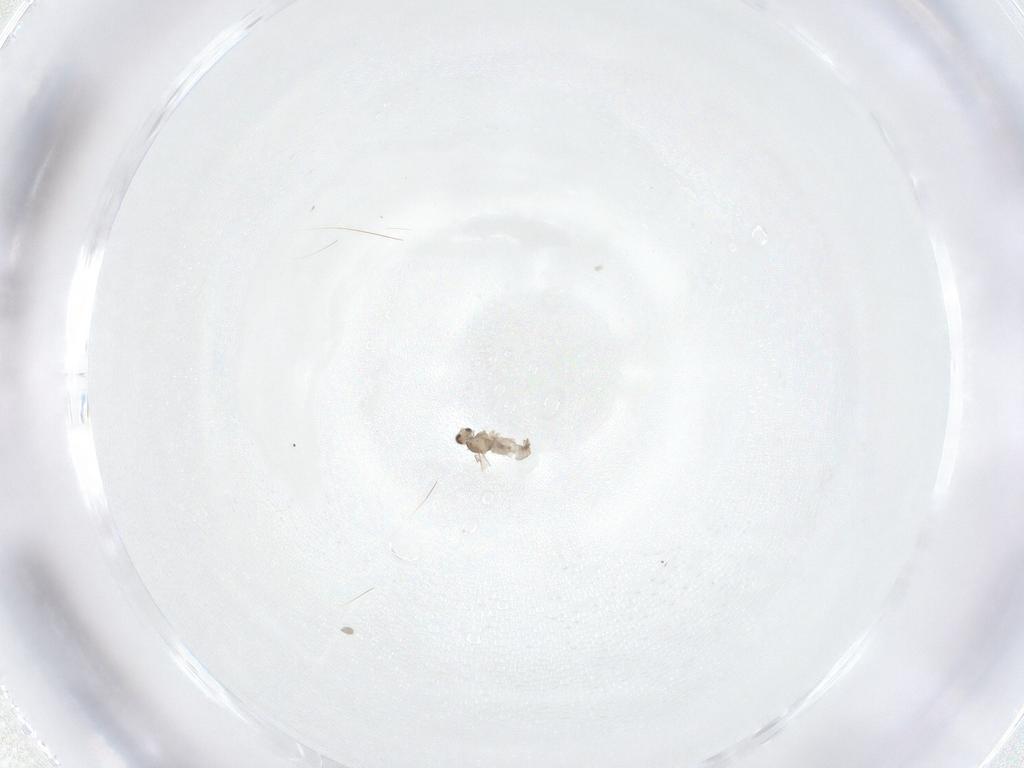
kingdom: Animalia
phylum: Arthropoda
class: Insecta
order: Diptera
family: Cecidomyiidae
